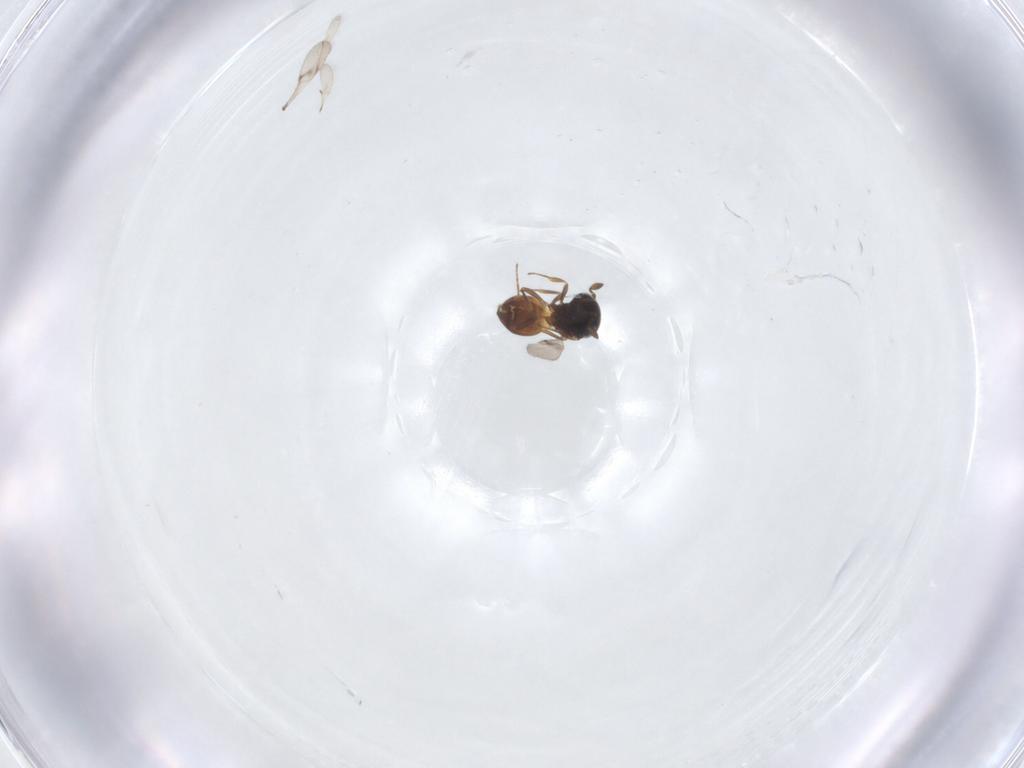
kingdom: Animalia
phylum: Arthropoda
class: Insecta
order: Hymenoptera
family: Scelionidae
